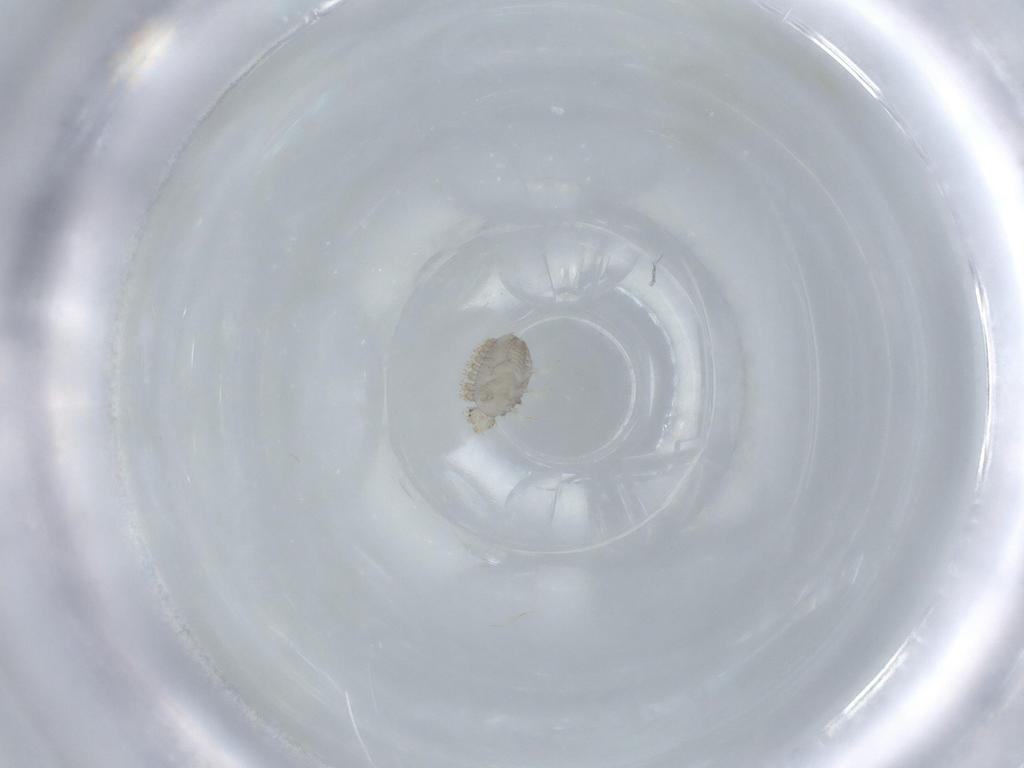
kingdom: Animalia
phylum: Arthropoda
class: Insecta
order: Coleoptera
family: Coccinellidae
